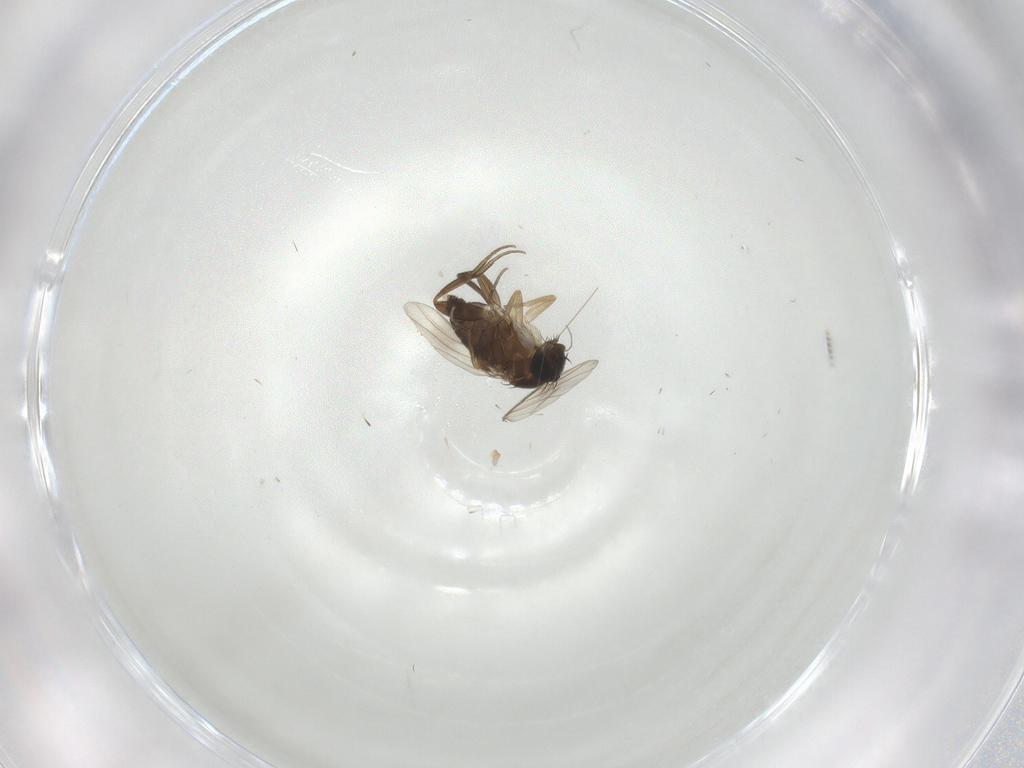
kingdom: Animalia
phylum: Arthropoda
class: Insecta
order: Diptera
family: Phoridae
